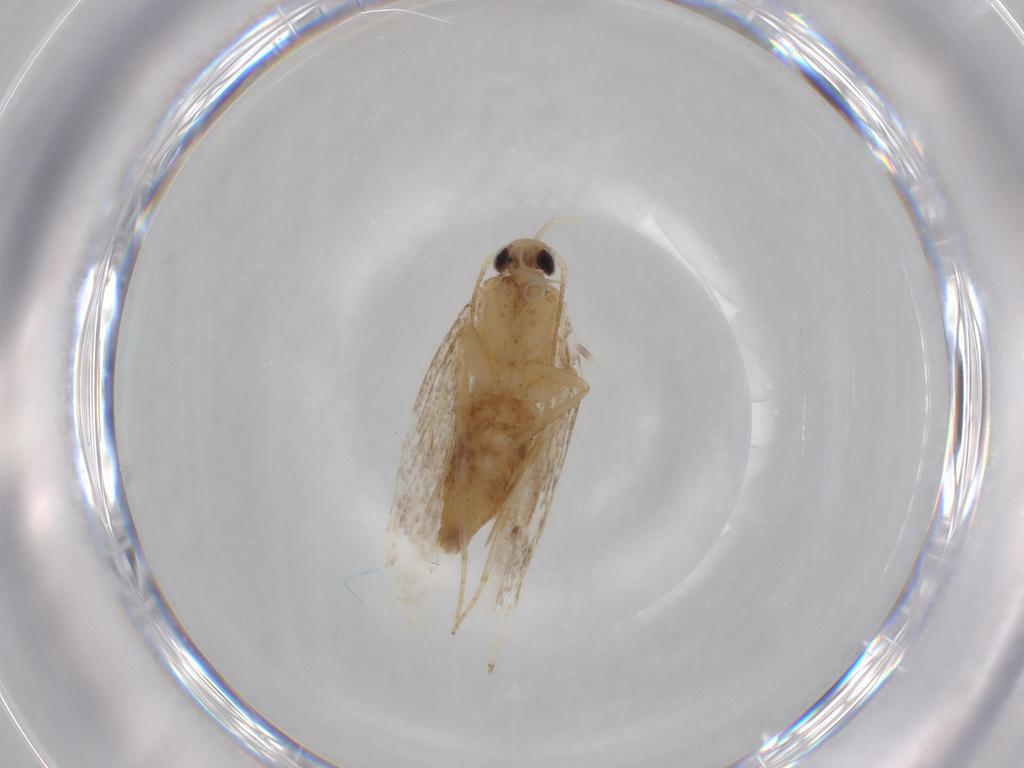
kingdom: Animalia
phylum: Arthropoda
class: Insecta
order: Lepidoptera
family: Gelechiidae
